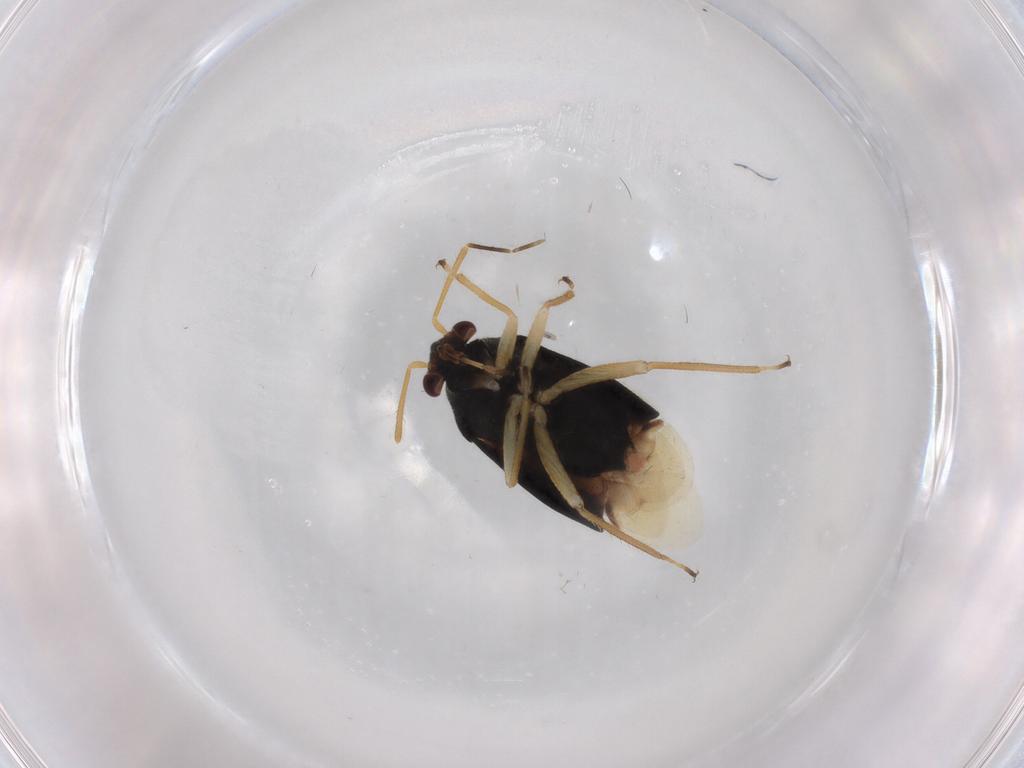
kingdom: Animalia
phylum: Arthropoda
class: Insecta
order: Hemiptera
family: Miridae
